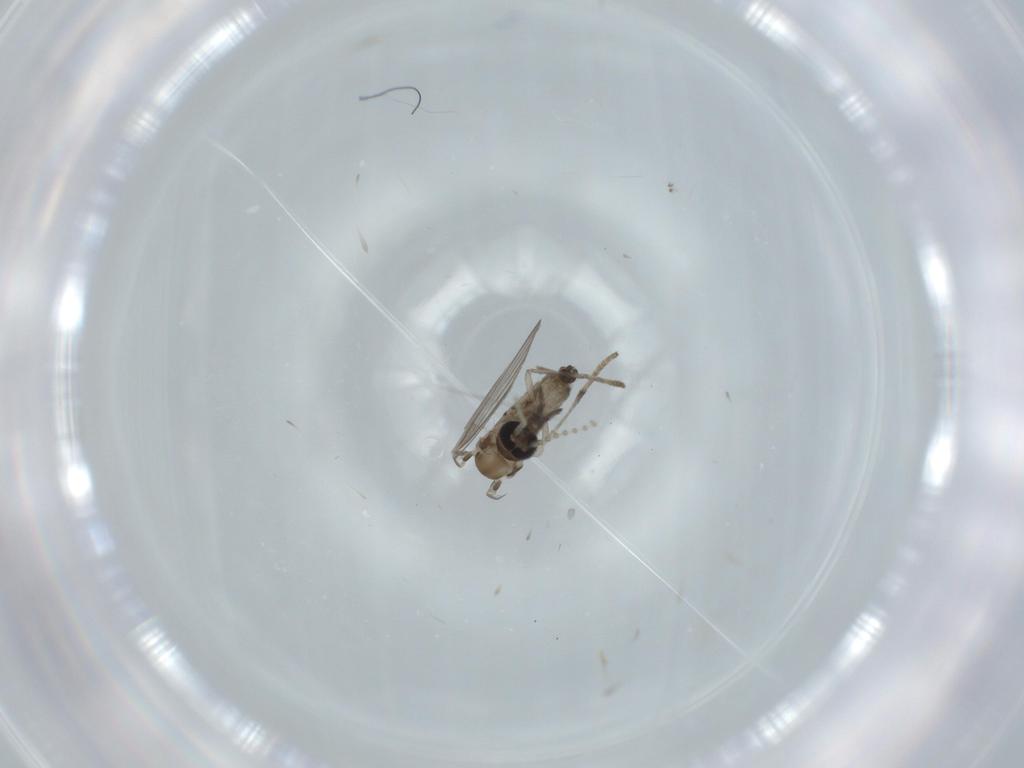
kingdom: Animalia
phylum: Arthropoda
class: Insecta
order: Diptera
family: Psychodidae
